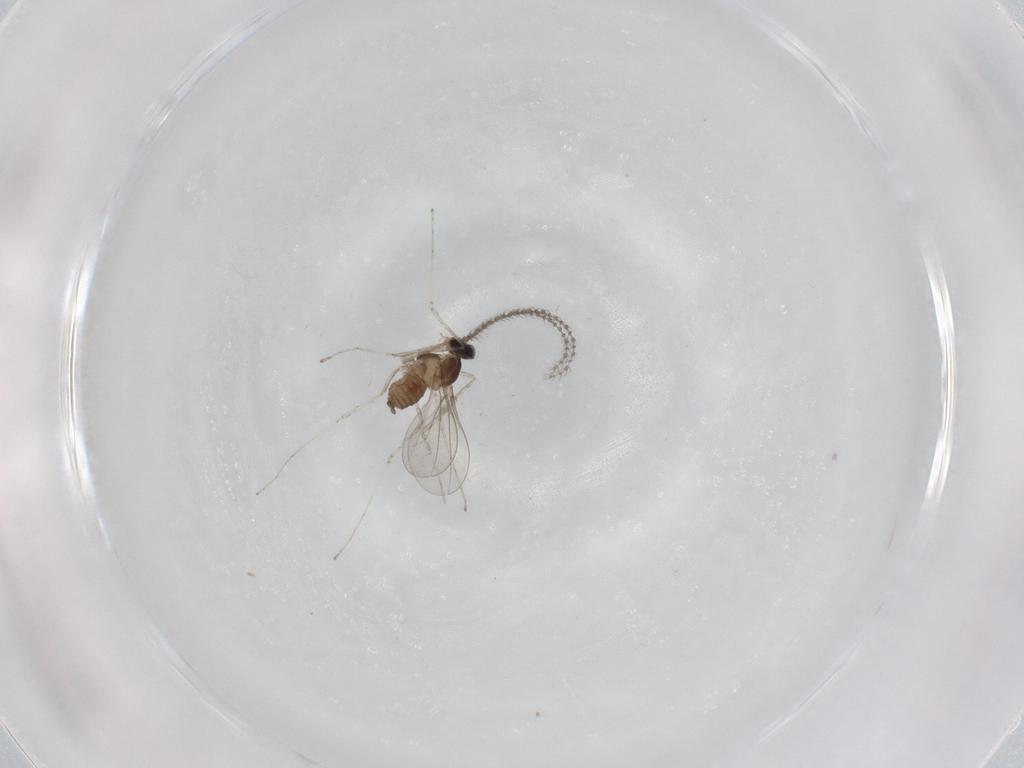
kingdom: Animalia
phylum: Arthropoda
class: Insecta
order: Diptera
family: Cecidomyiidae
